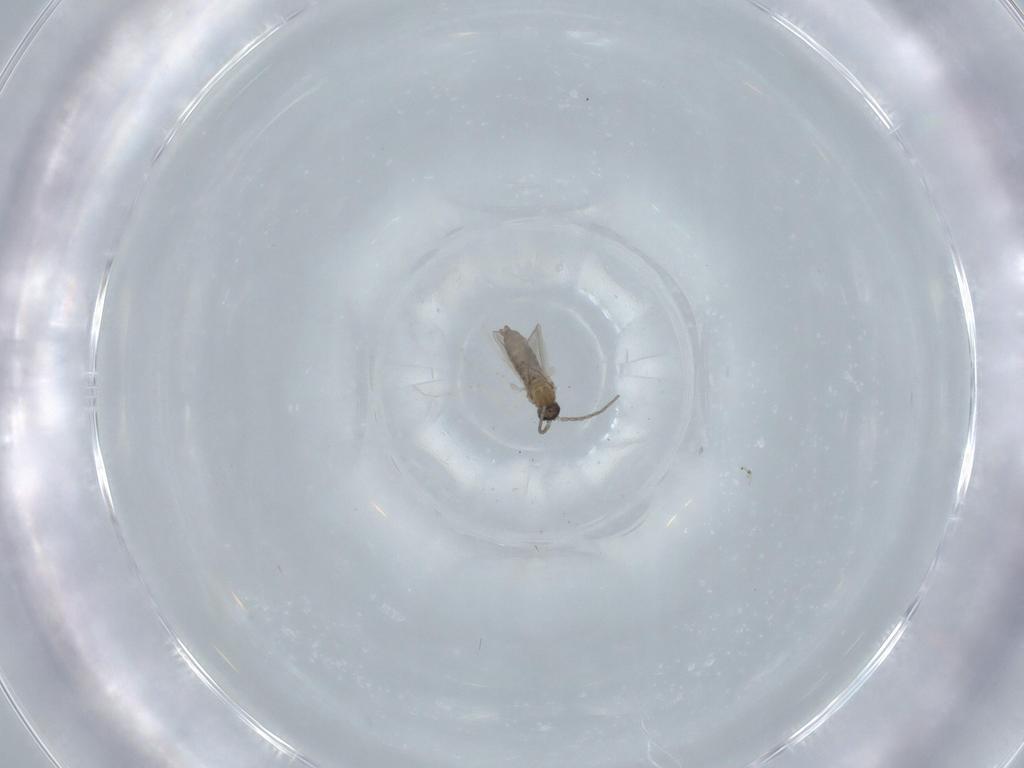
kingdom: Animalia
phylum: Arthropoda
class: Insecta
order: Diptera
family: Cecidomyiidae
